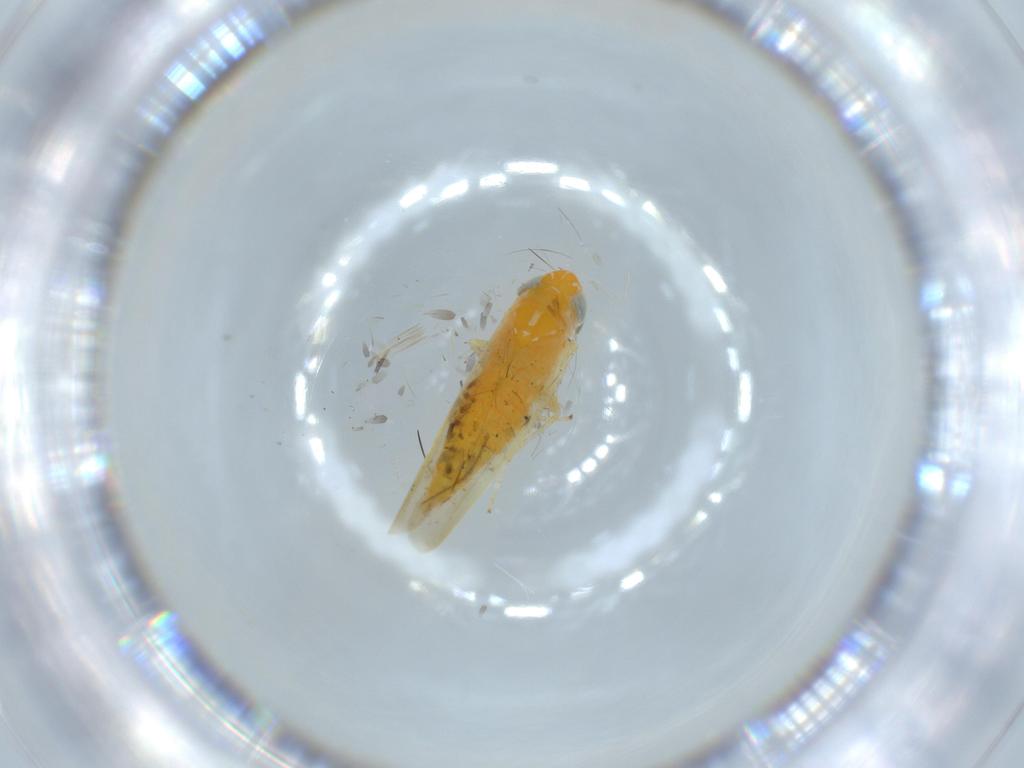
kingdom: Animalia
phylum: Arthropoda
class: Insecta
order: Hemiptera
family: Cicadellidae
